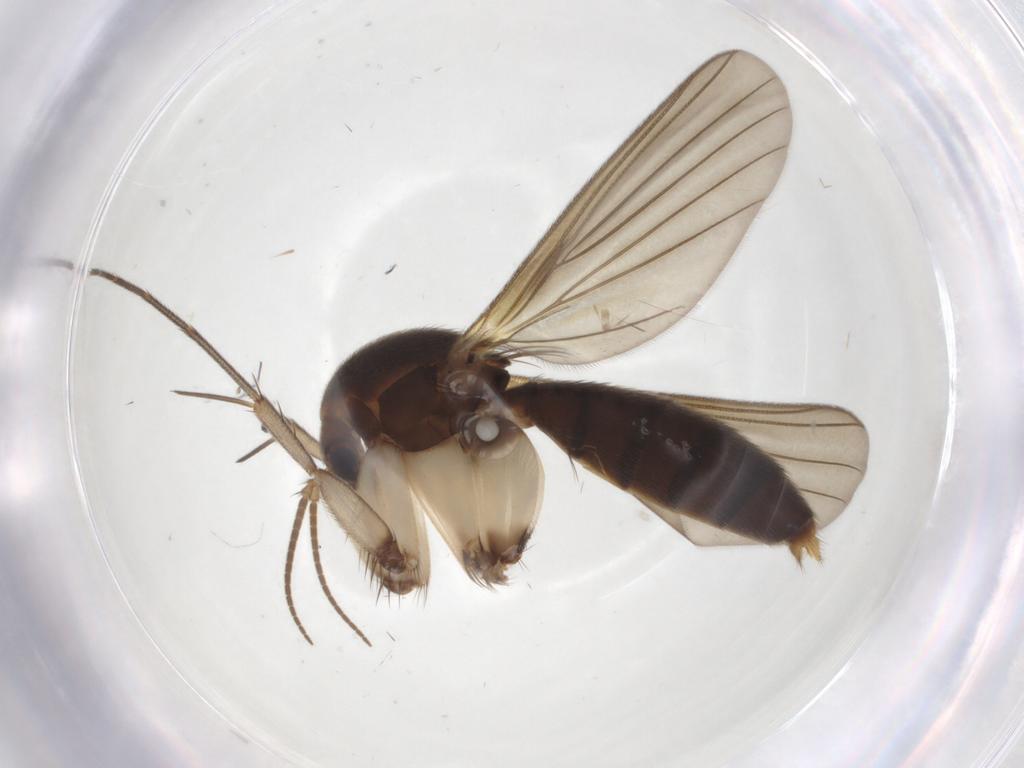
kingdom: Animalia
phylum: Arthropoda
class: Insecta
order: Diptera
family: Mycetophilidae
